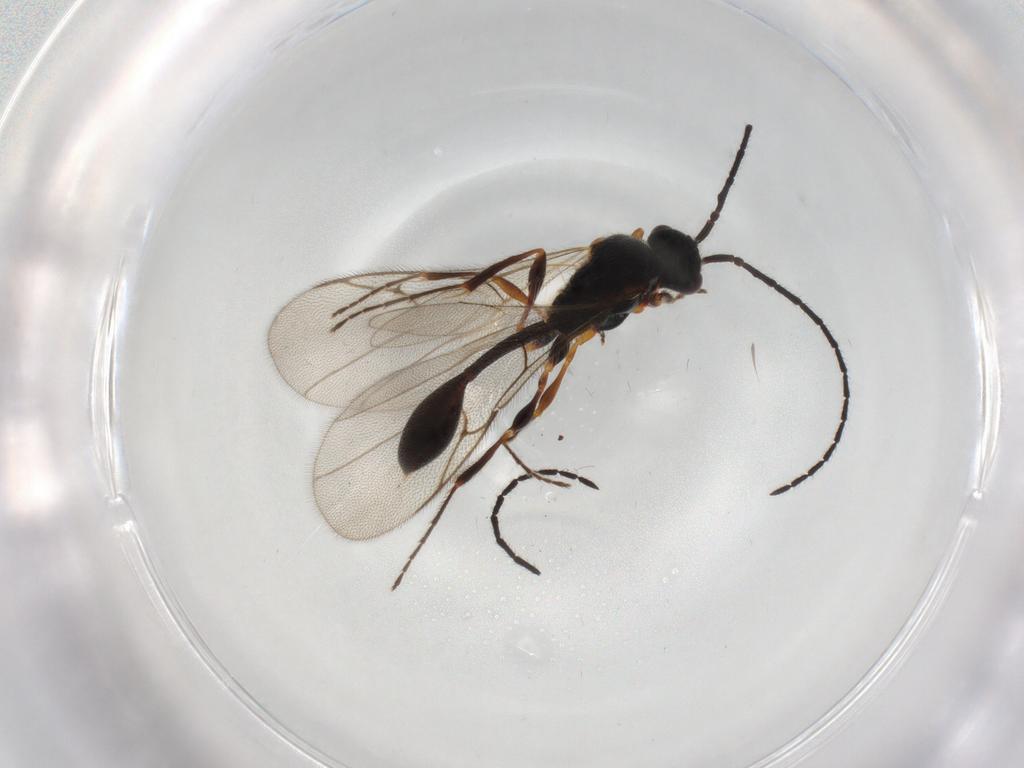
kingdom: Animalia
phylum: Arthropoda
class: Insecta
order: Hymenoptera
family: Diapriidae
